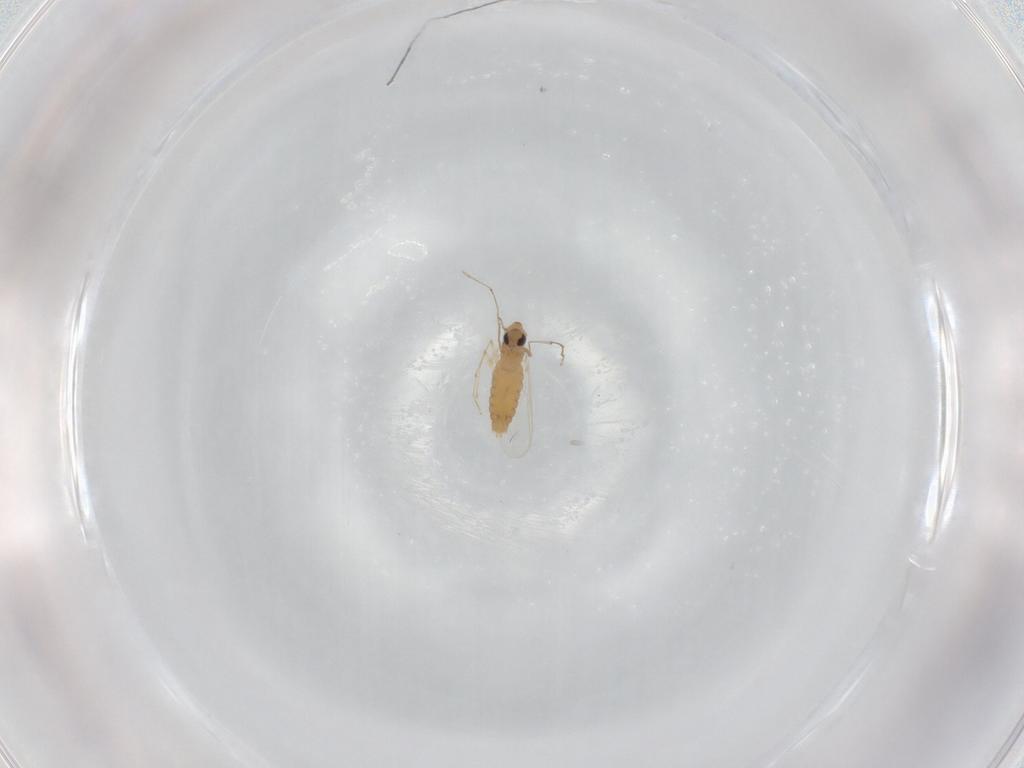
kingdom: Animalia
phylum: Arthropoda
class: Insecta
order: Diptera
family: Chironomidae
